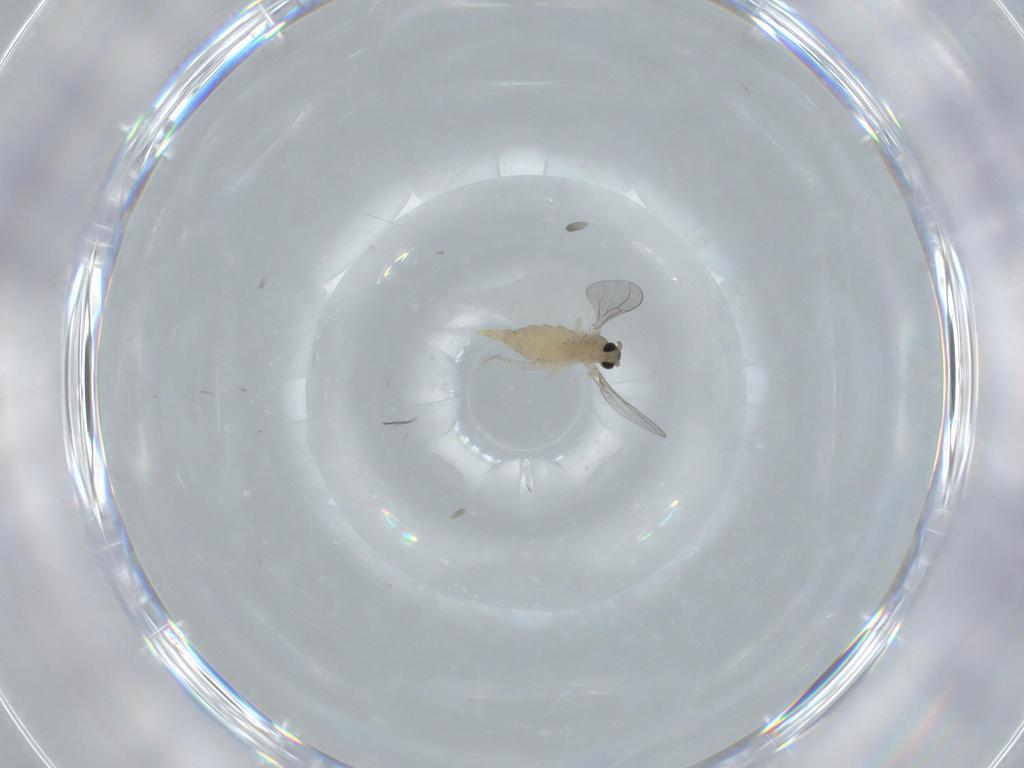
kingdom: Animalia
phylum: Arthropoda
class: Insecta
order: Diptera
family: Cecidomyiidae
